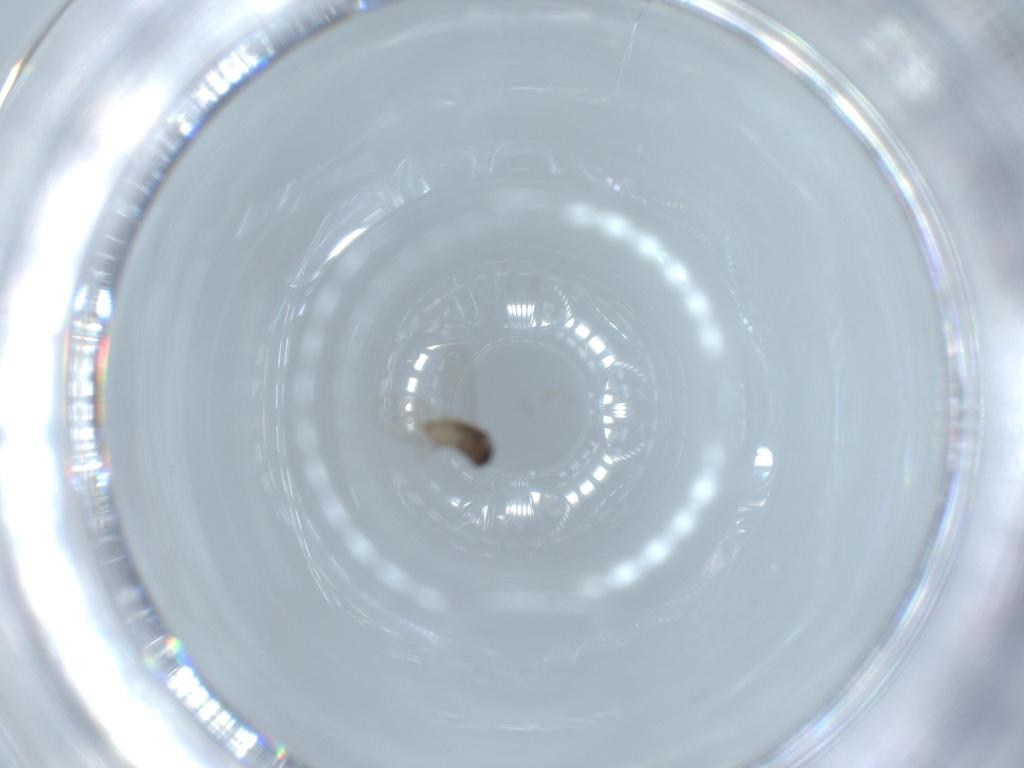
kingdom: Animalia
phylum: Arthropoda
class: Insecta
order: Diptera
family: Cecidomyiidae
